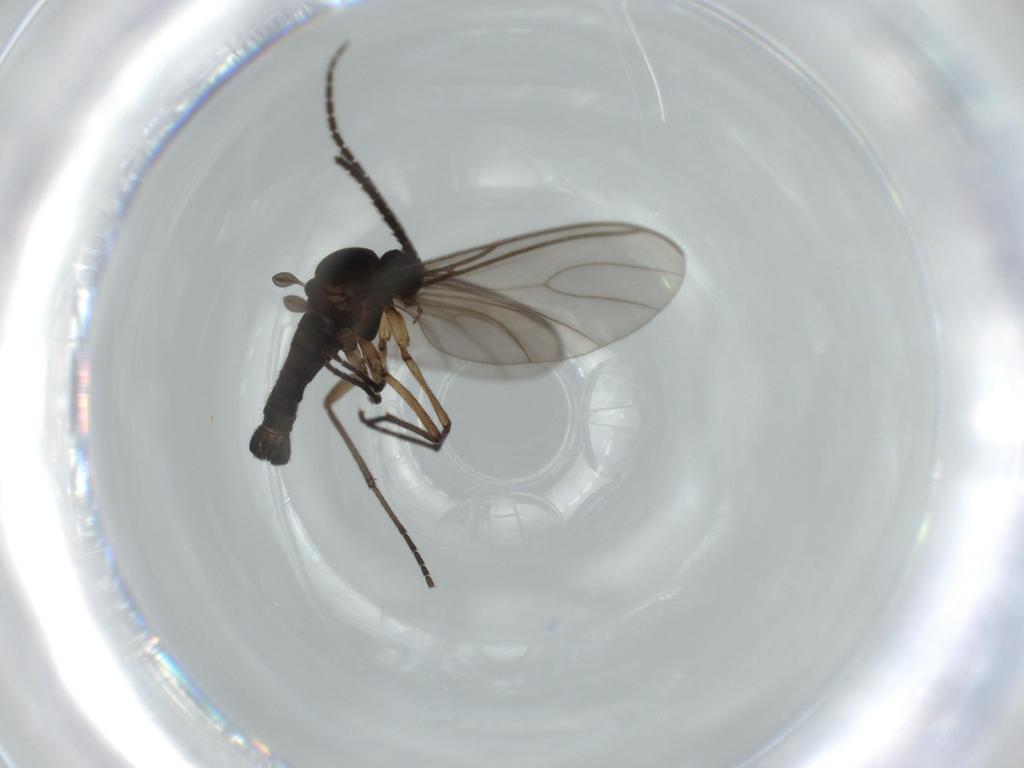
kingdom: Animalia
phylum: Arthropoda
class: Insecta
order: Diptera
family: Sciaridae
